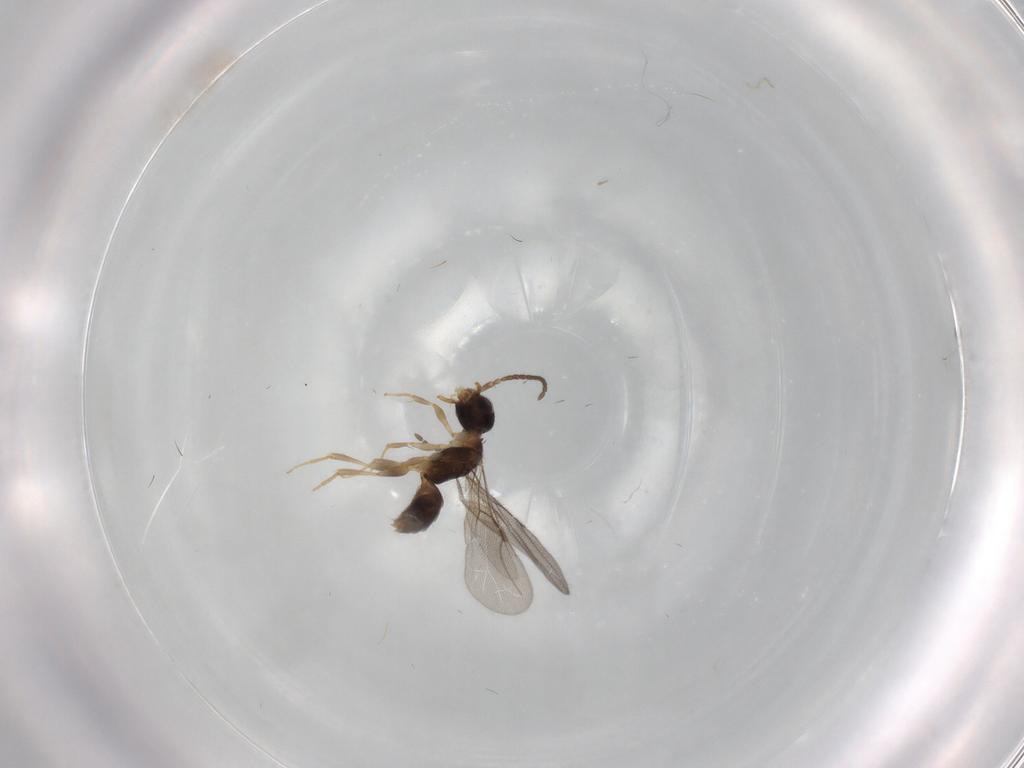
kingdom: Animalia
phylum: Arthropoda
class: Insecta
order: Hymenoptera
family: Bethylidae
